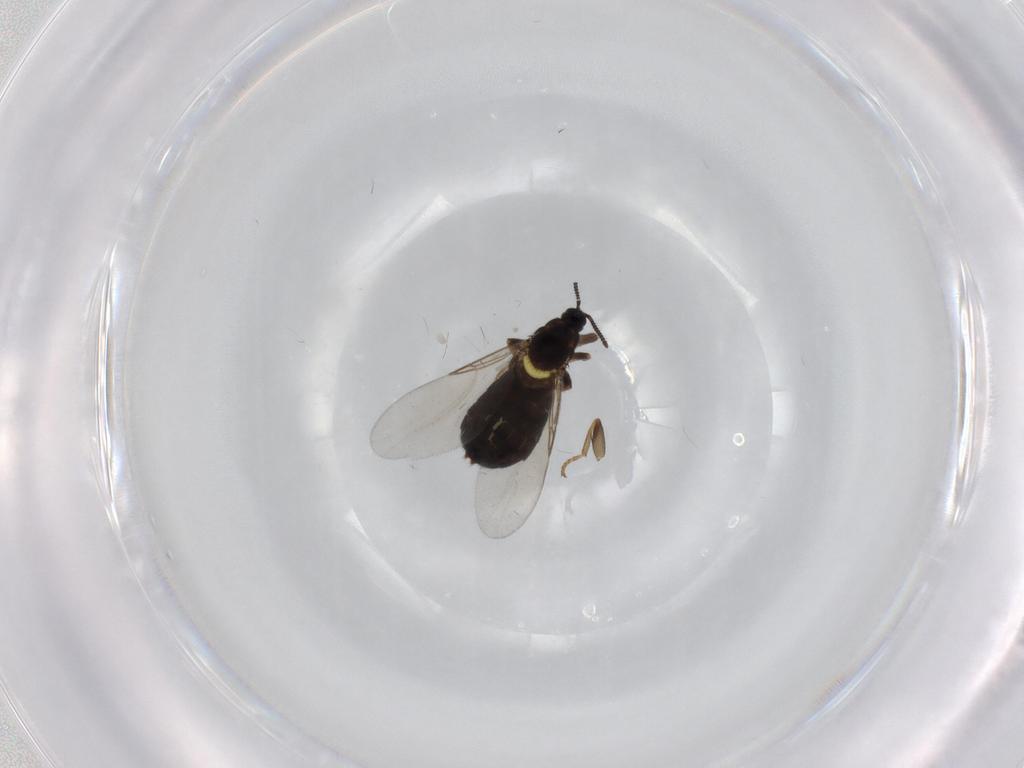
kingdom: Animalia
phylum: Arthropoda
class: Insecta
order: Diptera
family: Scatopsidae
